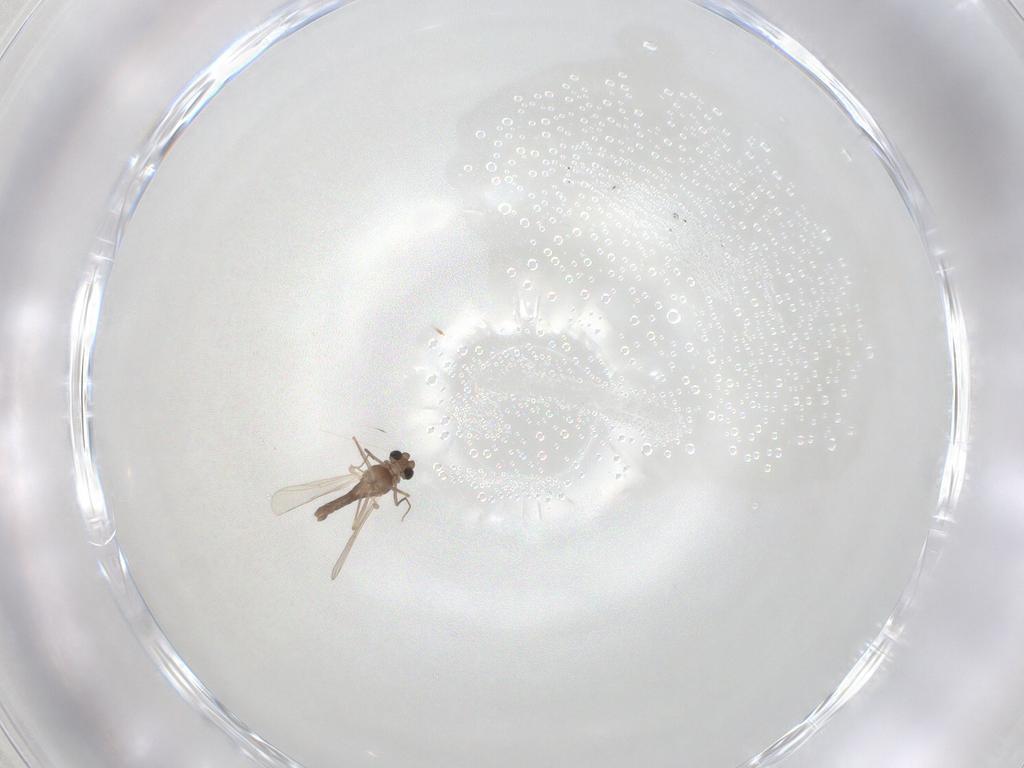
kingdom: Animalia
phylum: Arthropoda
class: Insecta
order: Diptera
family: Chironomidae
